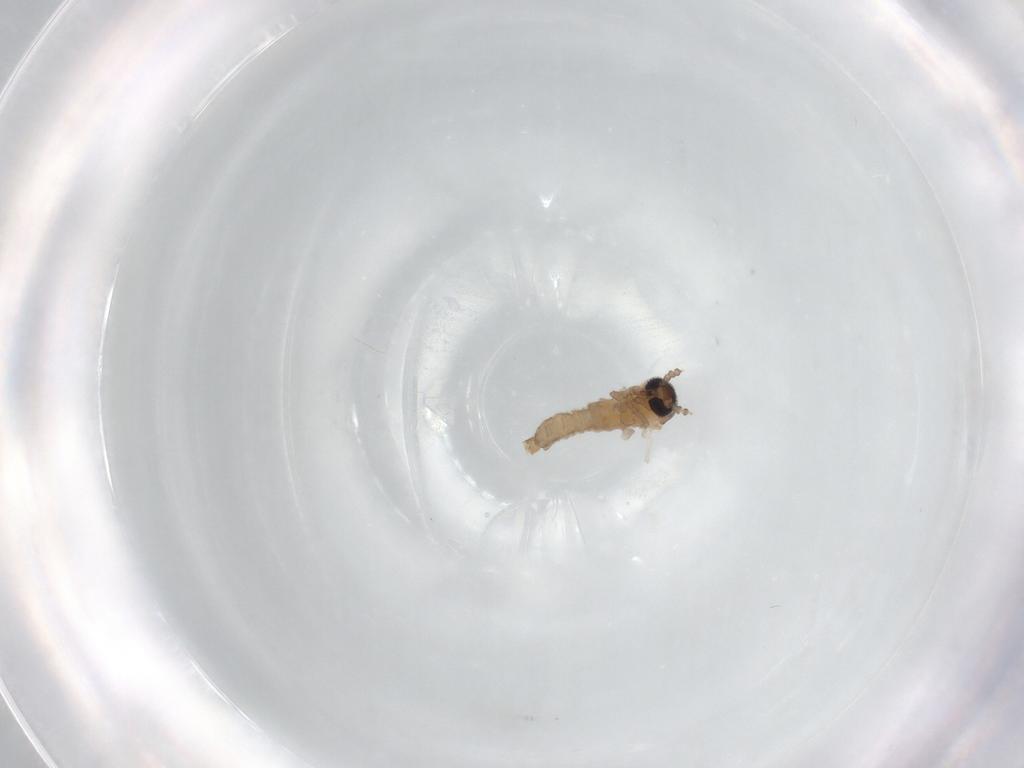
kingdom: Animalia
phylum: Arthropoda
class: Insecta
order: Diptera
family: Psychodidae
